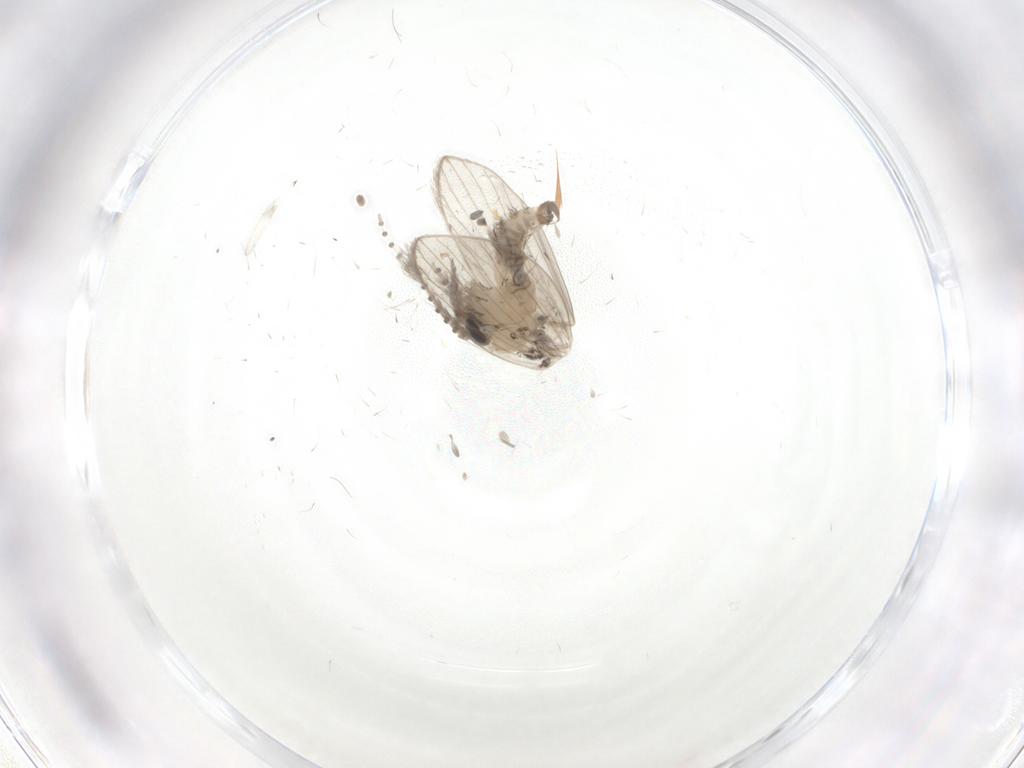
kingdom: Animalia
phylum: Arthropoda
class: Insecta
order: Diptera
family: Psychodidae
